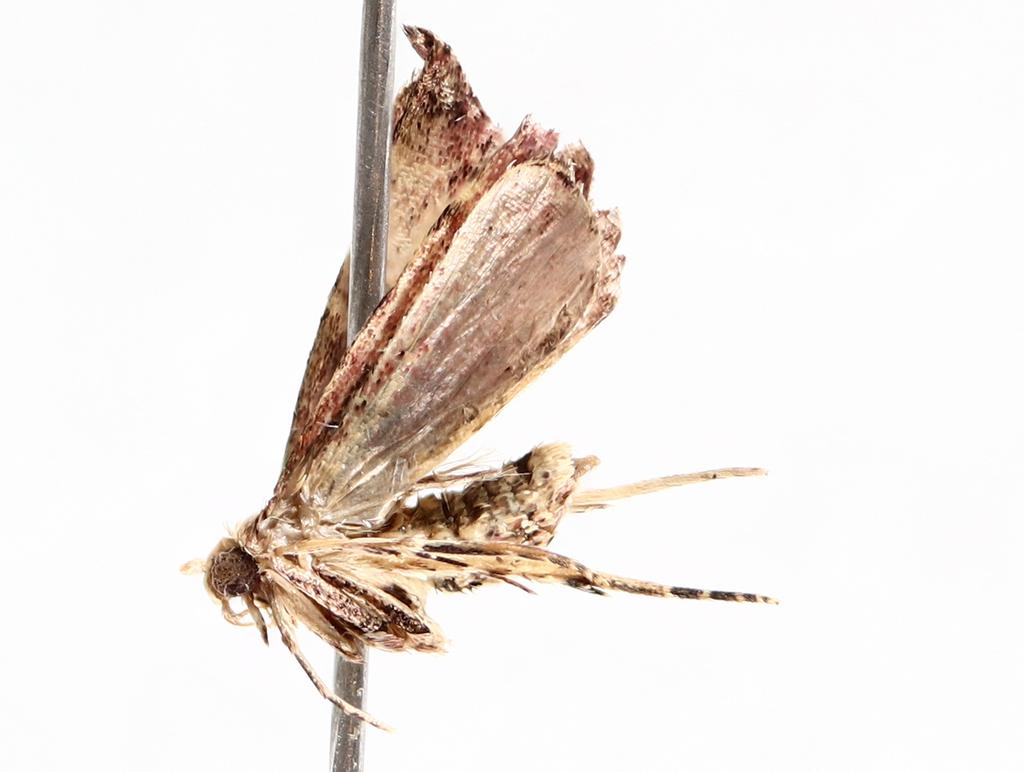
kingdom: Animalia
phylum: Arthropoda
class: Insecta
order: Diptera
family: Chironomidae
